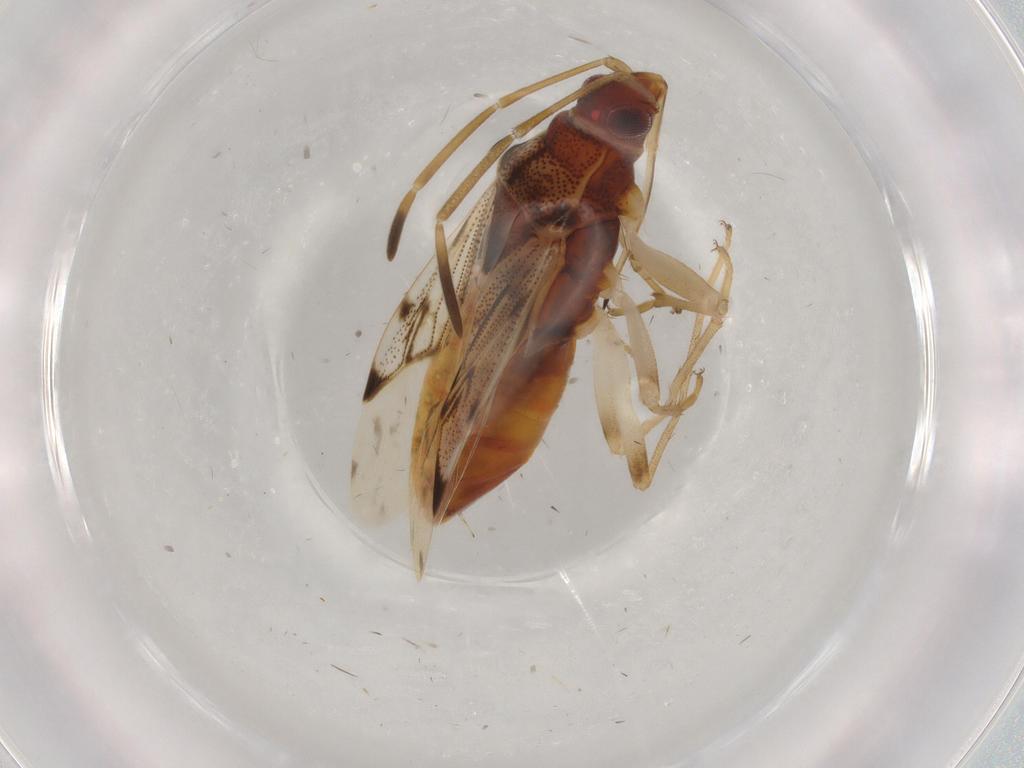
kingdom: Animalia
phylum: Arthropoda
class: Insecta
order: Hemiptera
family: Rhyparochromidae
